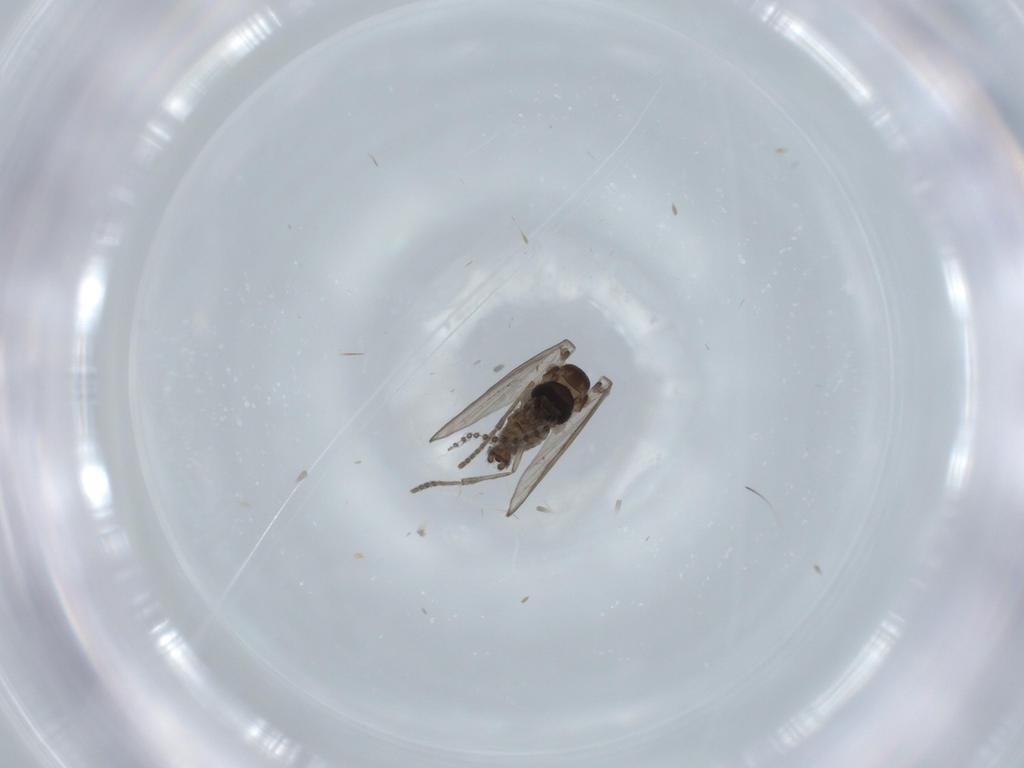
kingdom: Animalia
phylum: Arthropoda
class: Insecta
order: Diptera
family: Psychodidae
